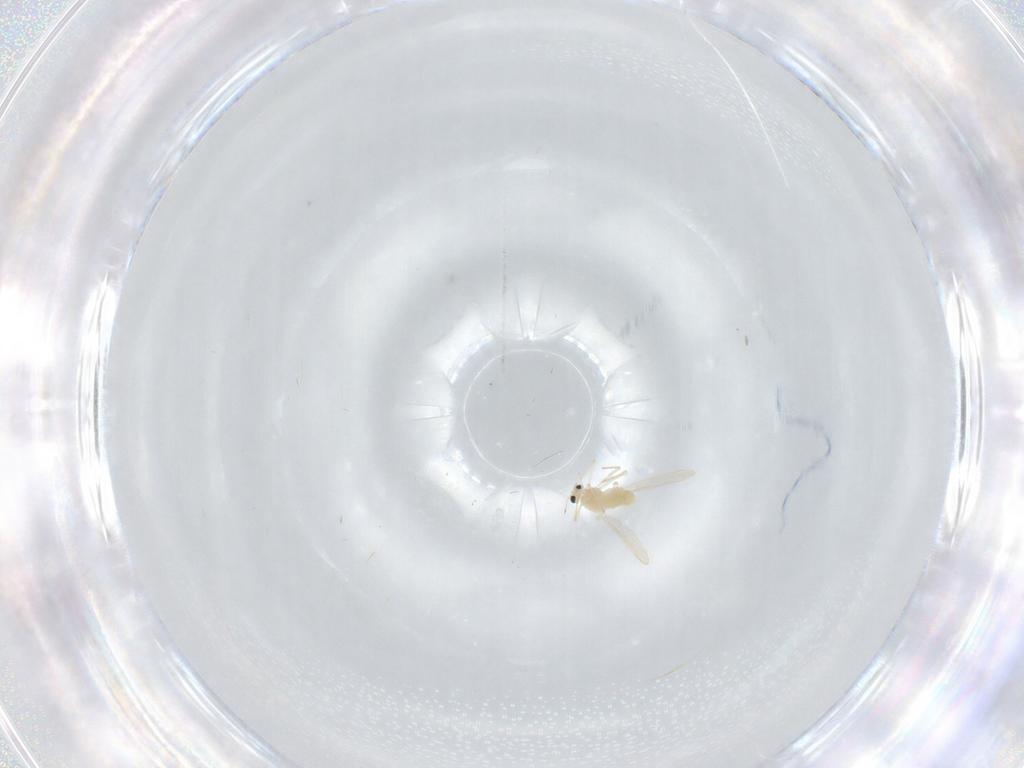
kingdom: Animalia
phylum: Arthropoda
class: Insecta
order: Diptera
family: Chironomidae
